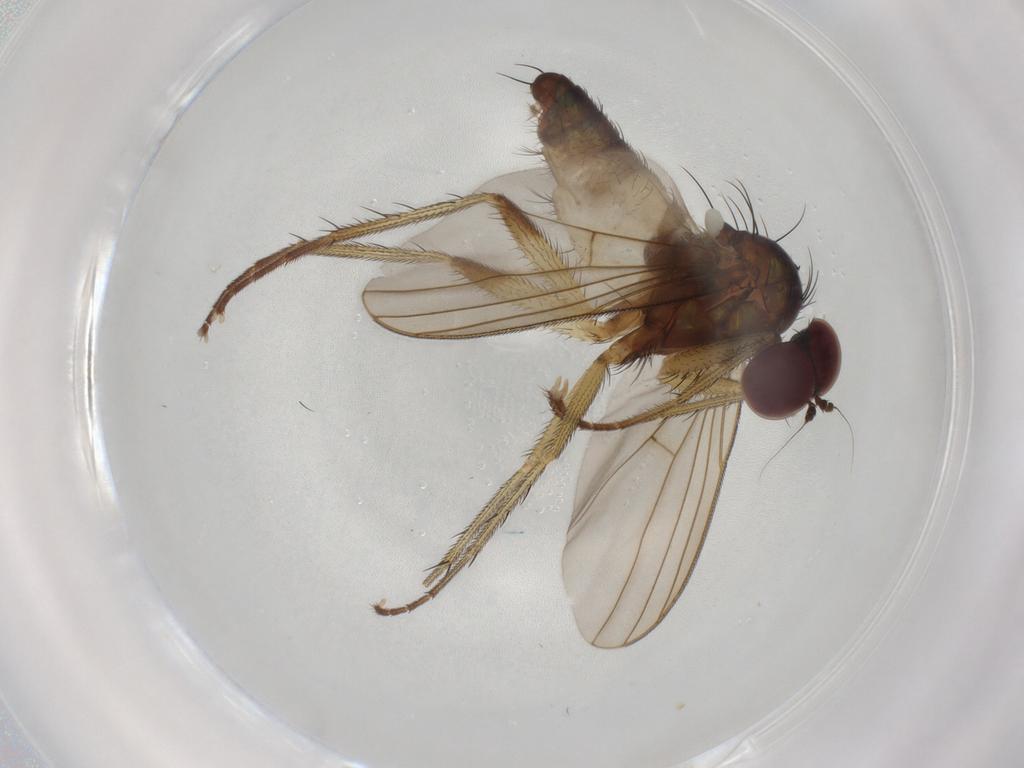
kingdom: Animalia
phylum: Arthropoda
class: Insecta
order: Diptera
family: Dolichopodidae
